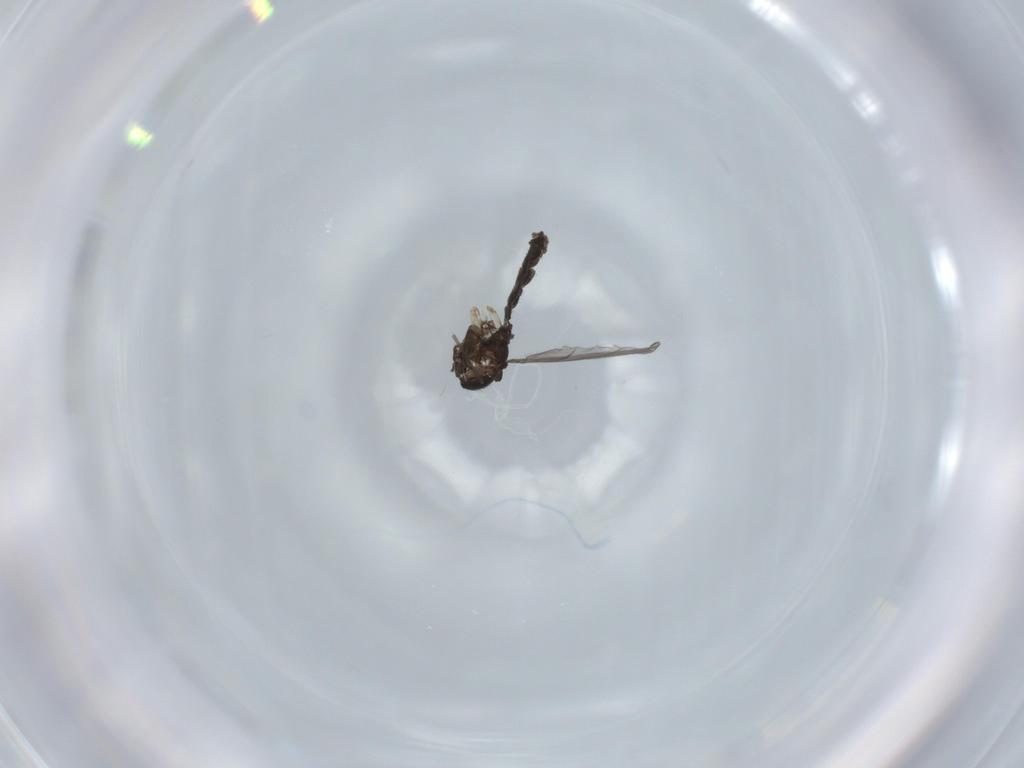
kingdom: Animalia
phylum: Arthropoda
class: Insecta
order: Diptera
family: Chironomidae
